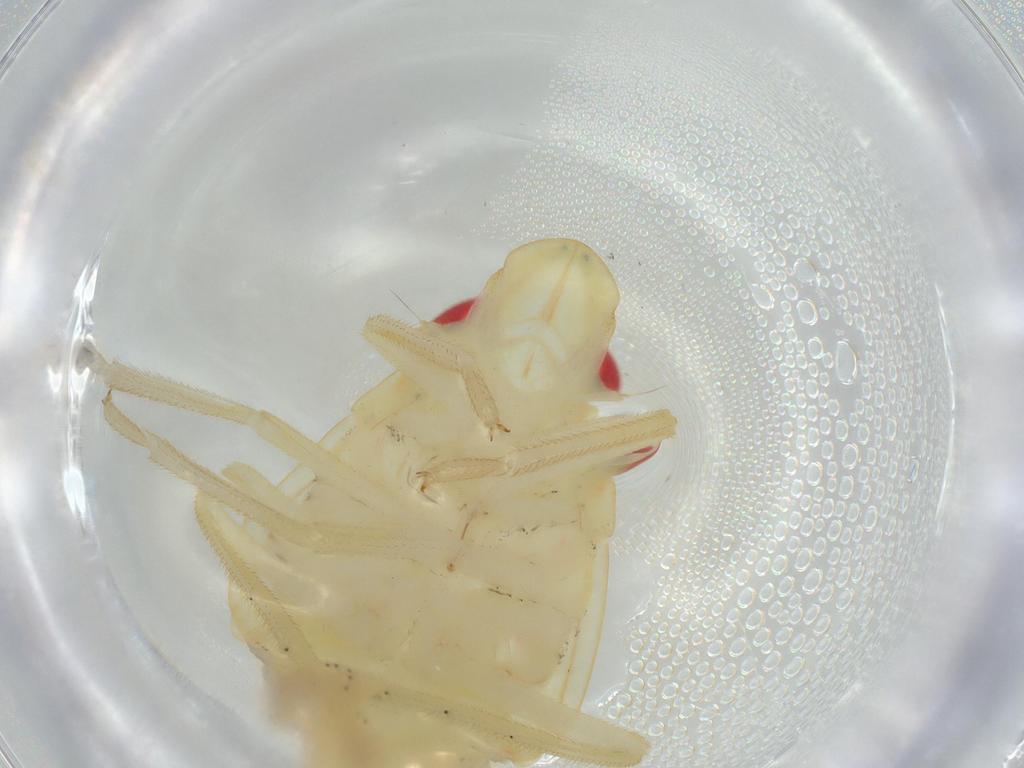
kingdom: Animalia
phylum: Arthropoda
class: Insecta
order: Hemiptera
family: Tropiduchidae
